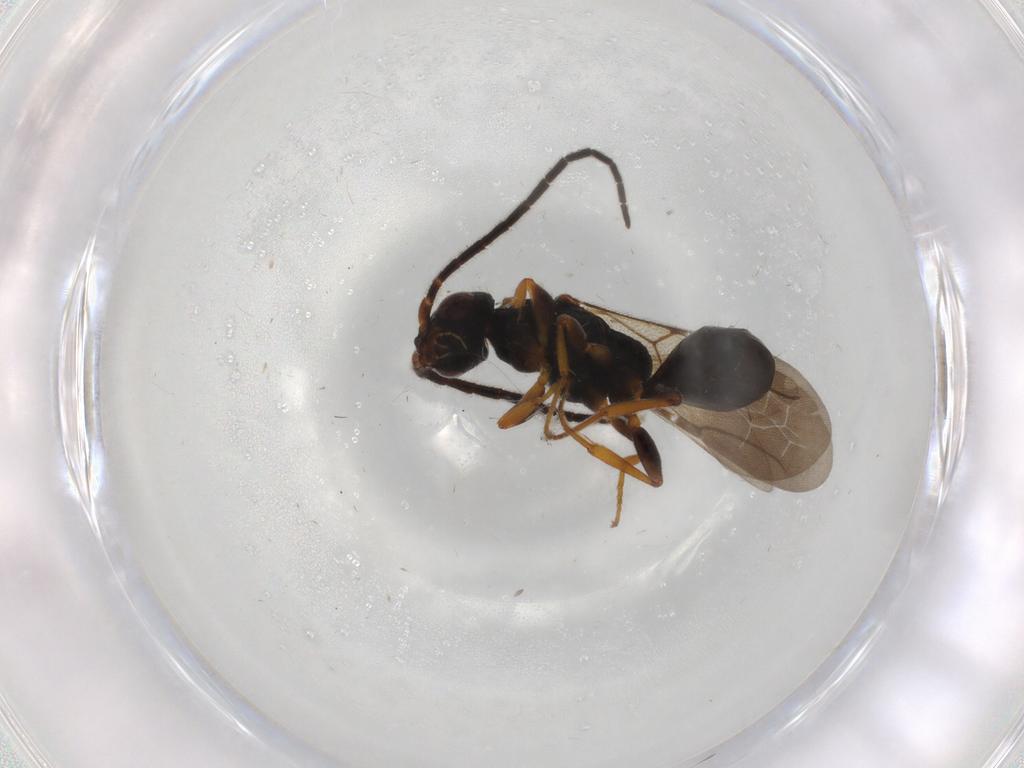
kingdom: Animalia
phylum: Arthropoda
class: Insecta
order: Hymenoptera
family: Bethylidae
